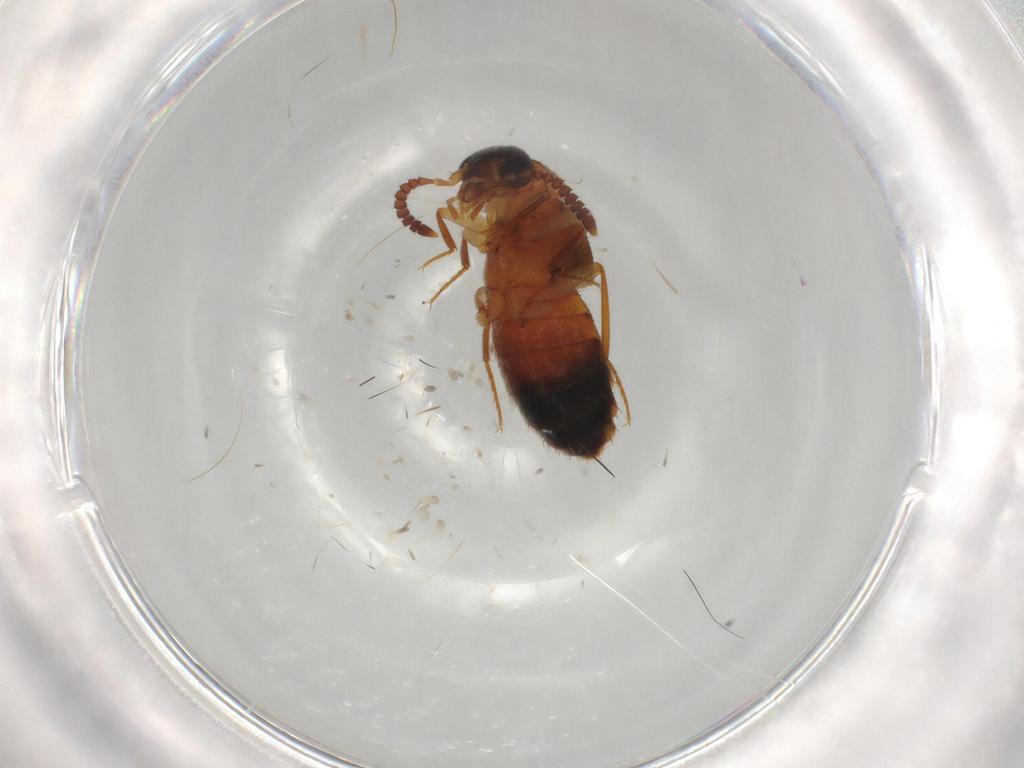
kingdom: Animalia
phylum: Arthropoda
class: Insecta
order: Coleoptera
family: Staphylinidae
